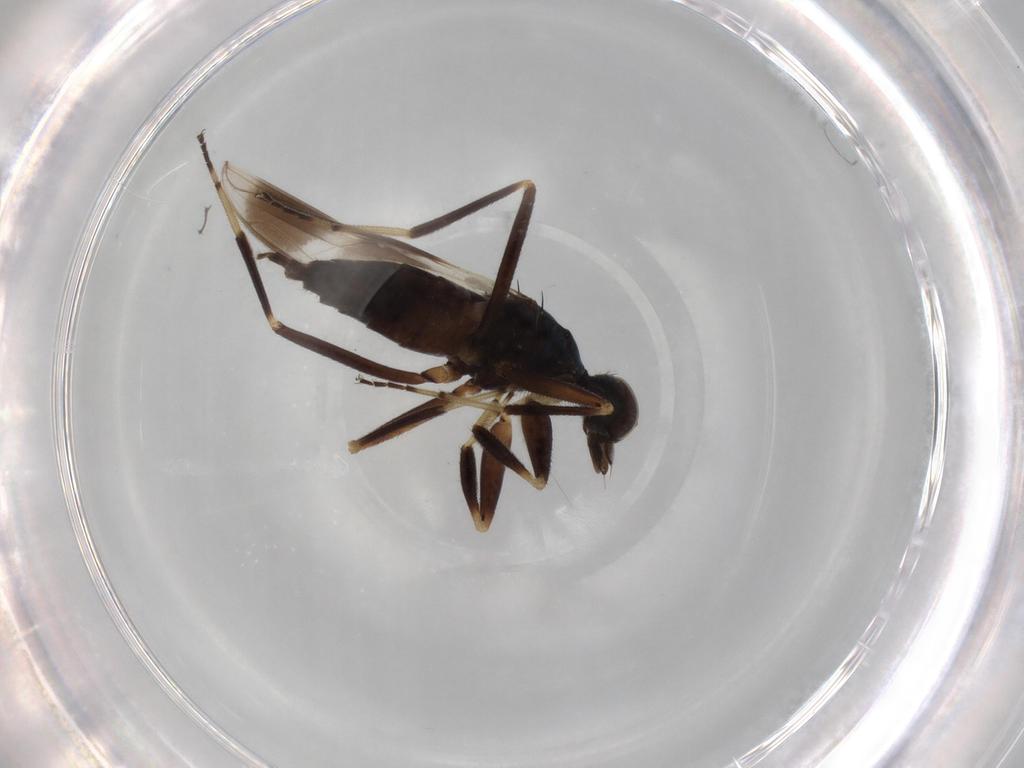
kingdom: Animalia
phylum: Arthropoda
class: Insecta
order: Diptera
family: Hybotidae
